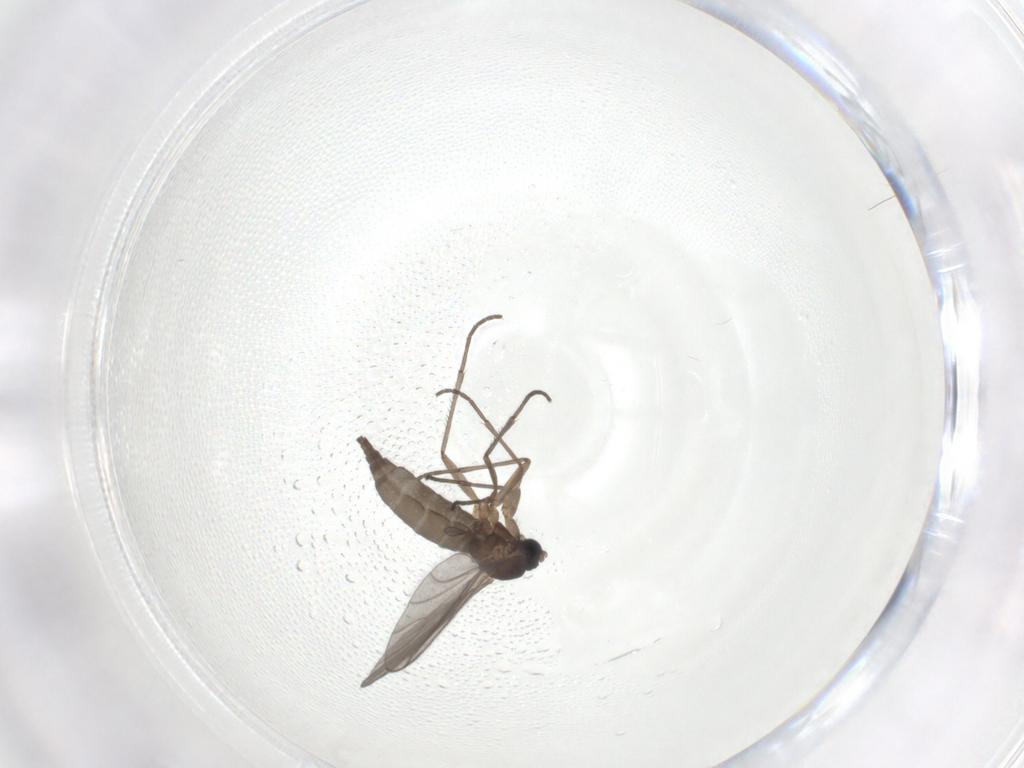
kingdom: Animalia
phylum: Arthropoda
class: Insecta
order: Diptera
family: Sciaridae
